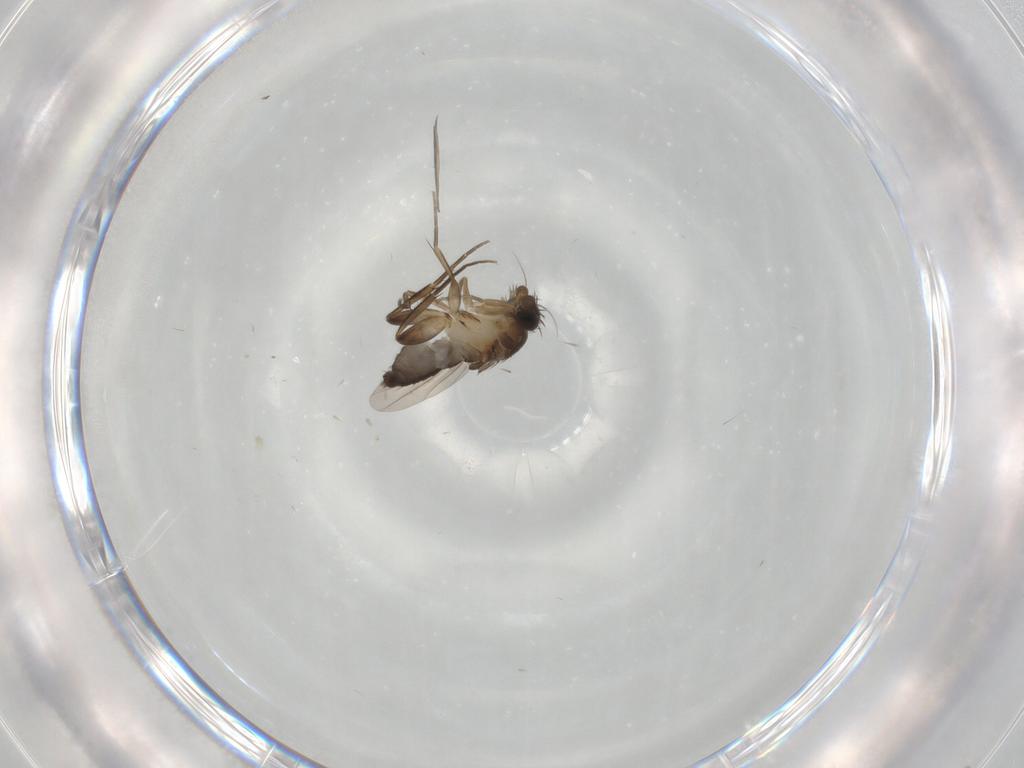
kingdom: Animalia
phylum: Arthropoda
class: Insecta
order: Diptera
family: Phoridae
